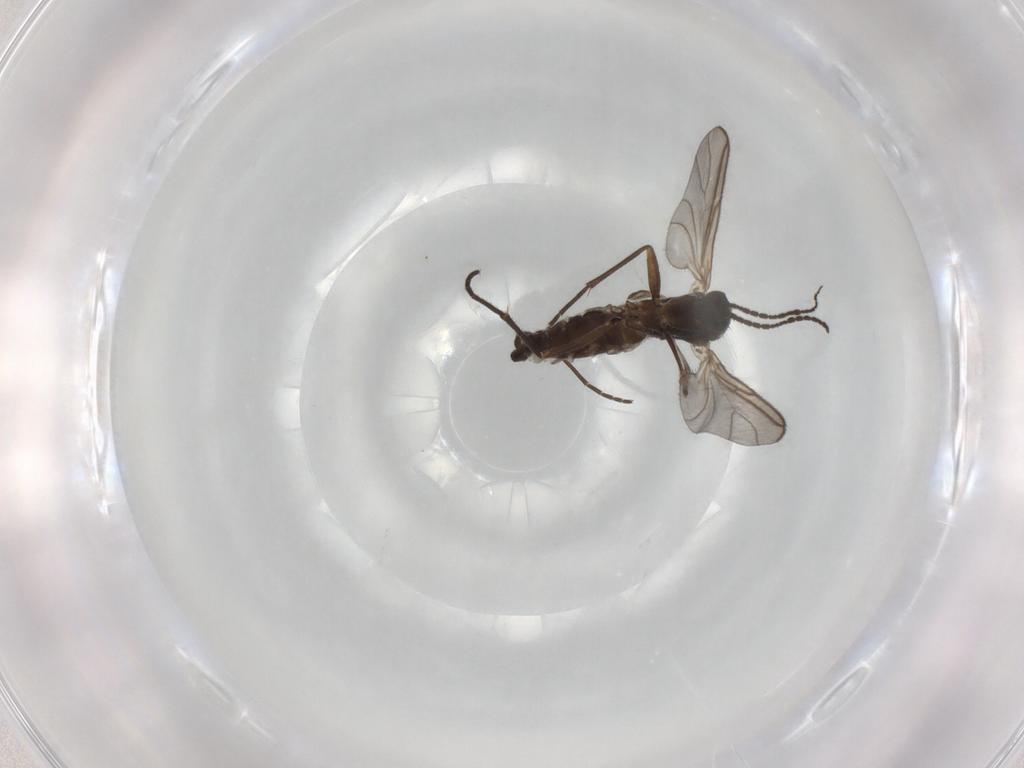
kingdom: Animalia
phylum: Arthropoda
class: Insecta
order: Diptera
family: Sciaridae
